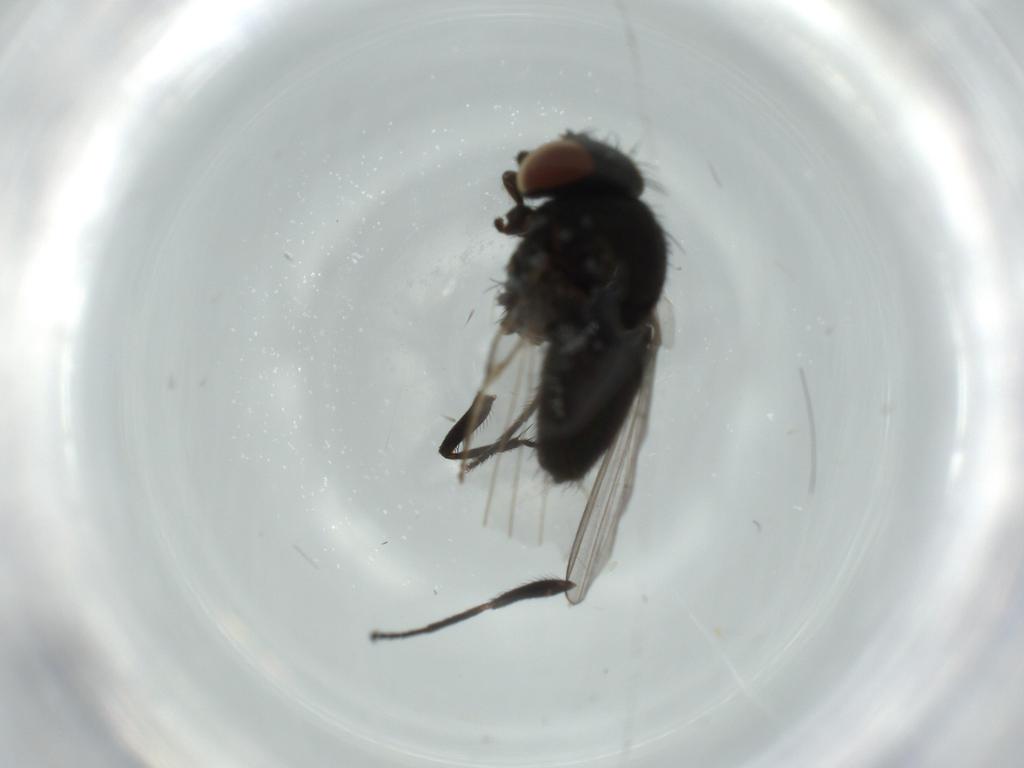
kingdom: Animalia
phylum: Arthropoda
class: Insecta
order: Diptera
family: Milichiidae
